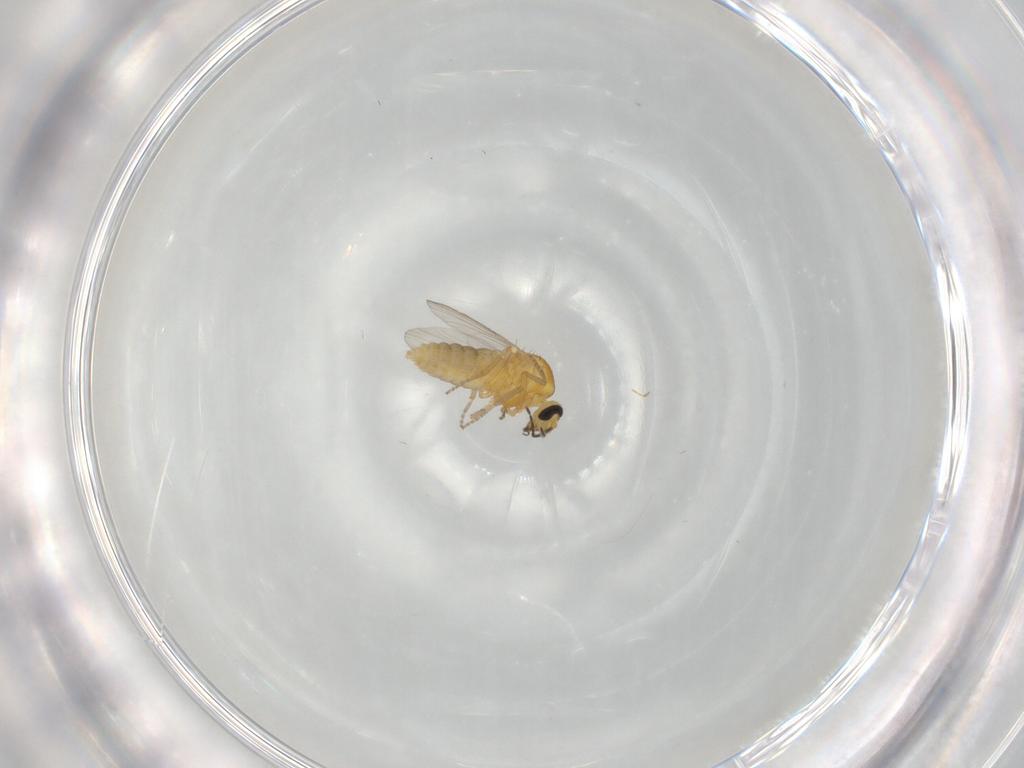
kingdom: Animalia
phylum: Arthropoda
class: Insecta
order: Diptera
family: Ceratopogonidae
